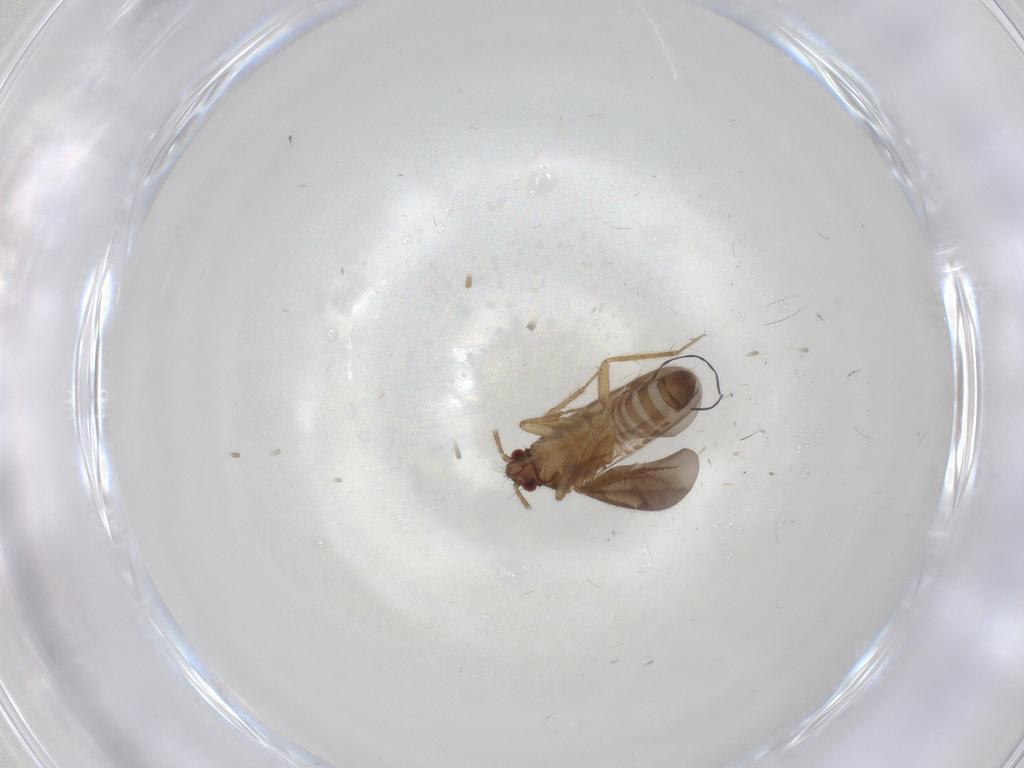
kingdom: Animalia
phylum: Arthropoda
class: Insecta
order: Hemiptera
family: Ceratocombidae
